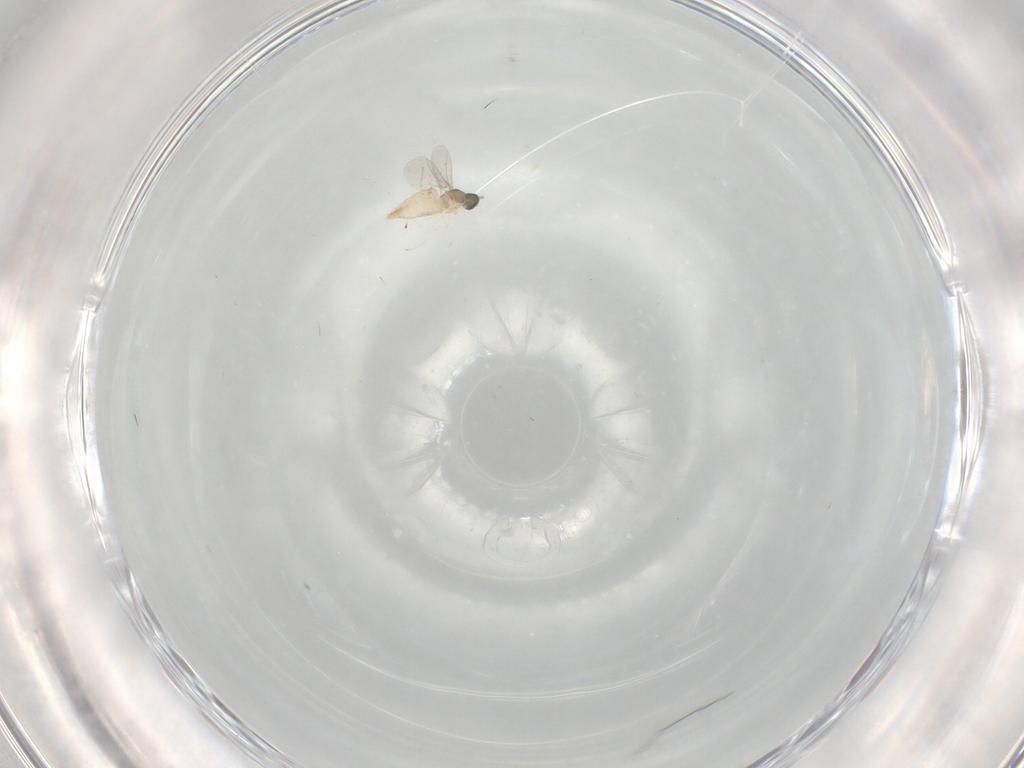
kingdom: Animalia
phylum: Arthropoda
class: Insecta
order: Diptera
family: Cecidomyiidae
